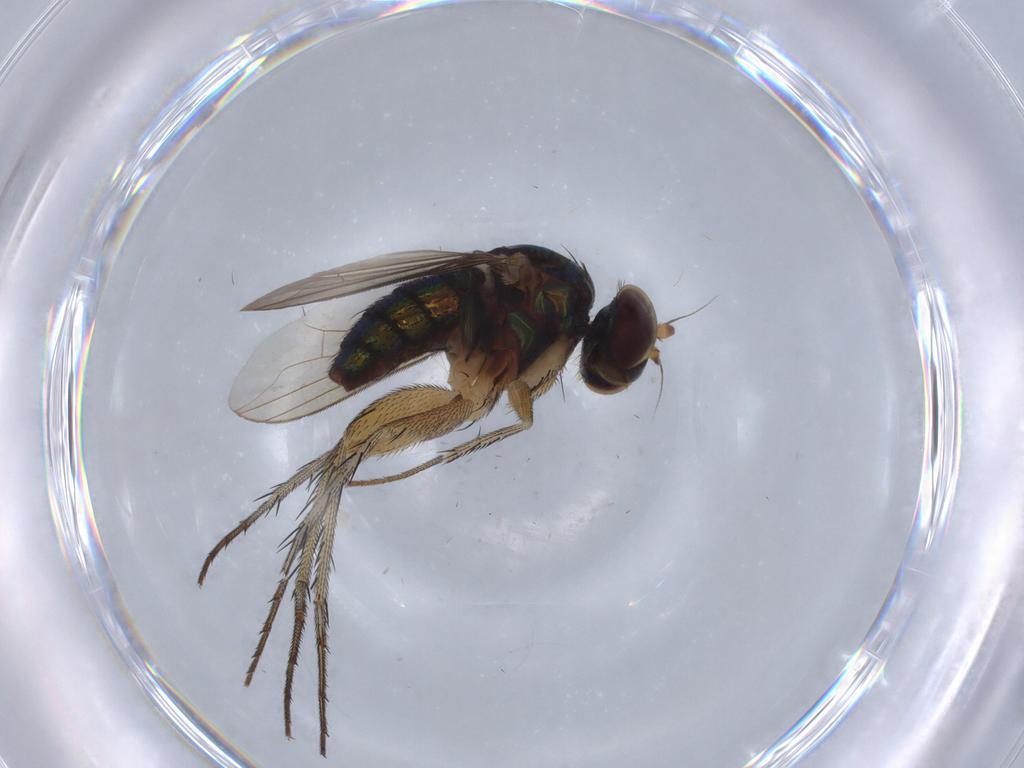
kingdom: Animalia
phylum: Arthropoda
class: Insecta
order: Diptera
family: Dolichopodidae
